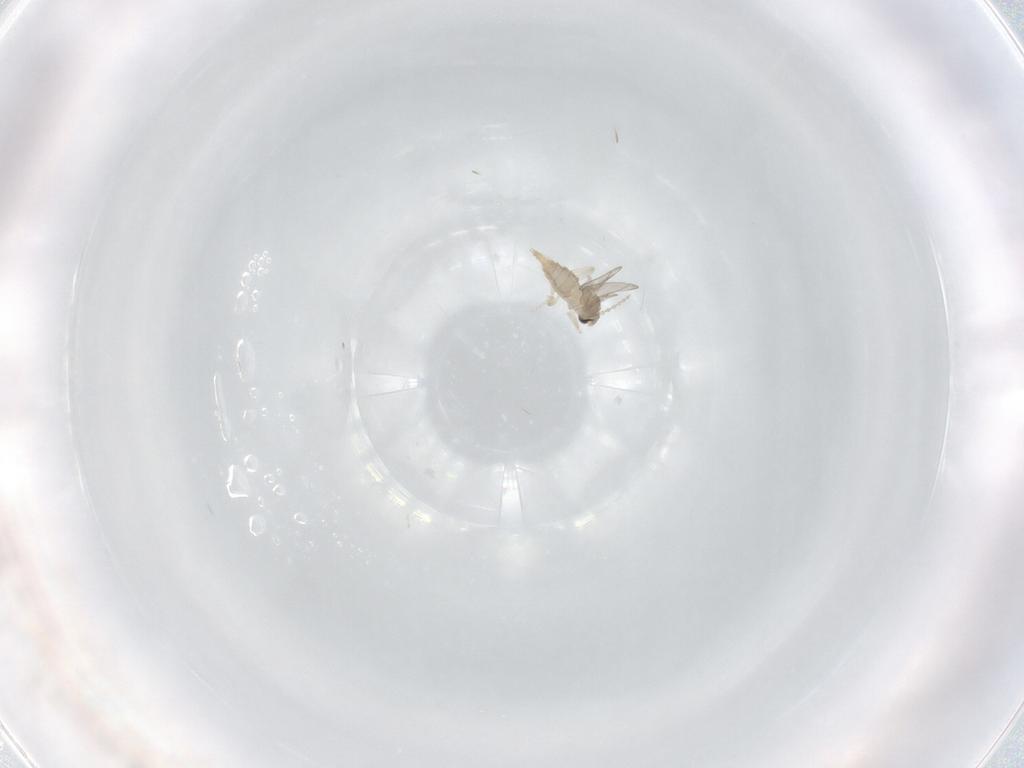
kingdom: Animalia
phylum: Arthropoda
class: Insecta
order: Diptera
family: Cecidomyiidae
